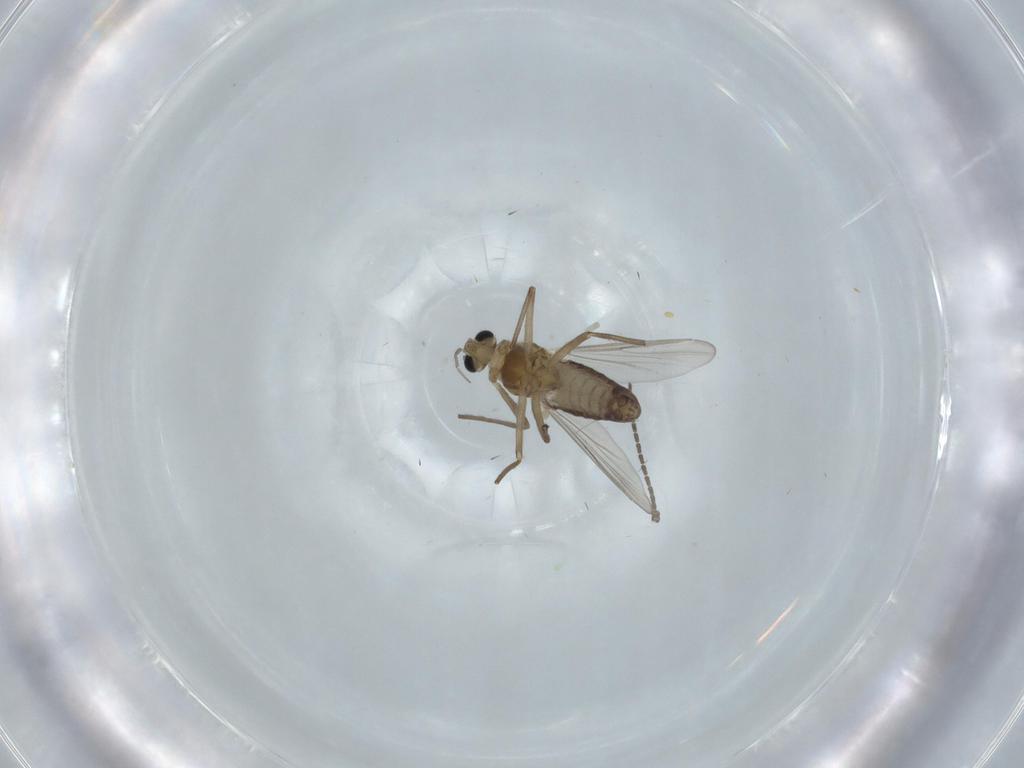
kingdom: Animalia
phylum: Arthropoda
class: Insecta
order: Diptera
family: Chironomidae
